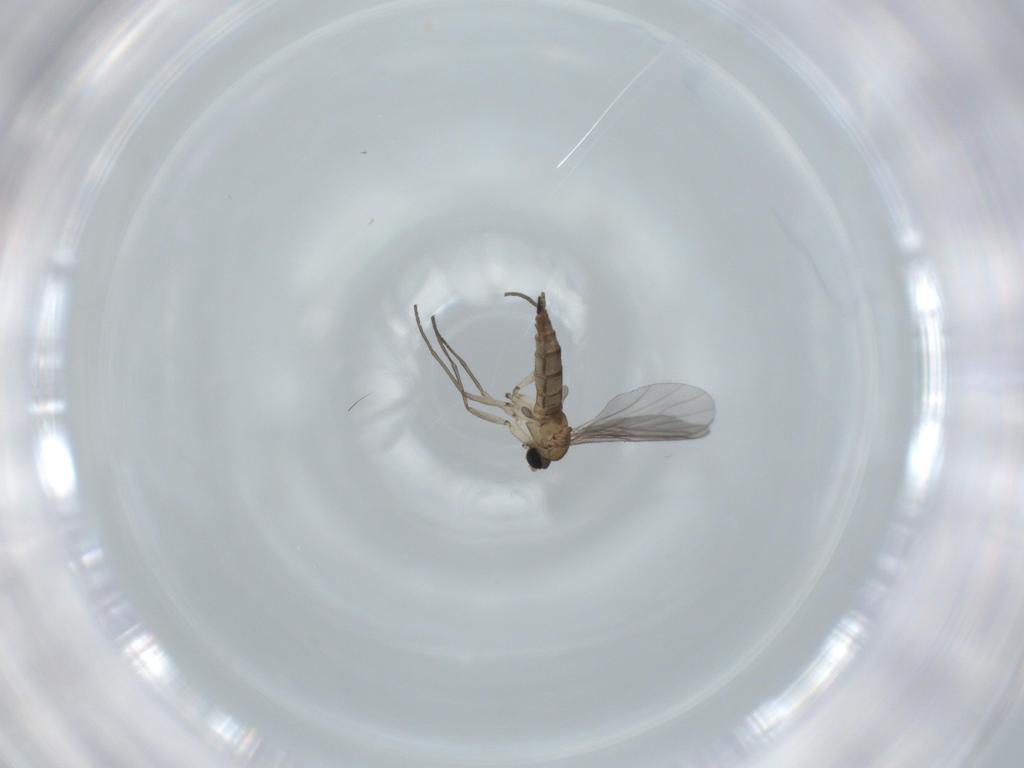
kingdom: Animalia
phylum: Arthropoda
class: Insecta
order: Diptera
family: Sciaridae
